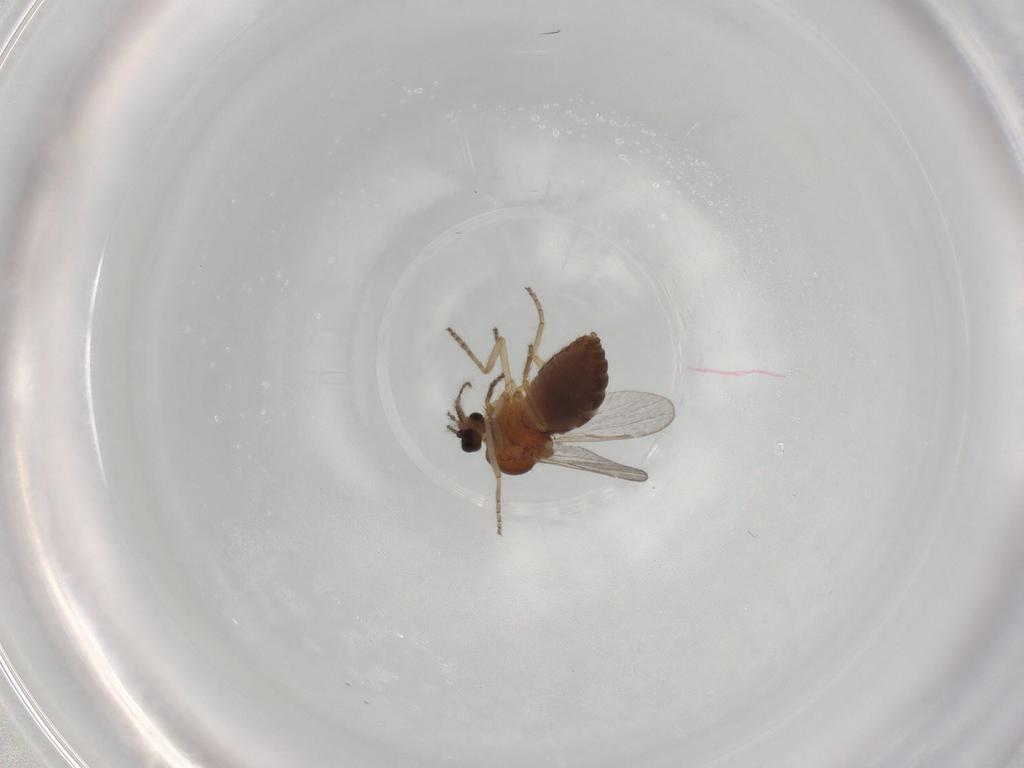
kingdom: Animalia
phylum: Arthropoda
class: Insecta
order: Diptera
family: Ceratopogonidae
